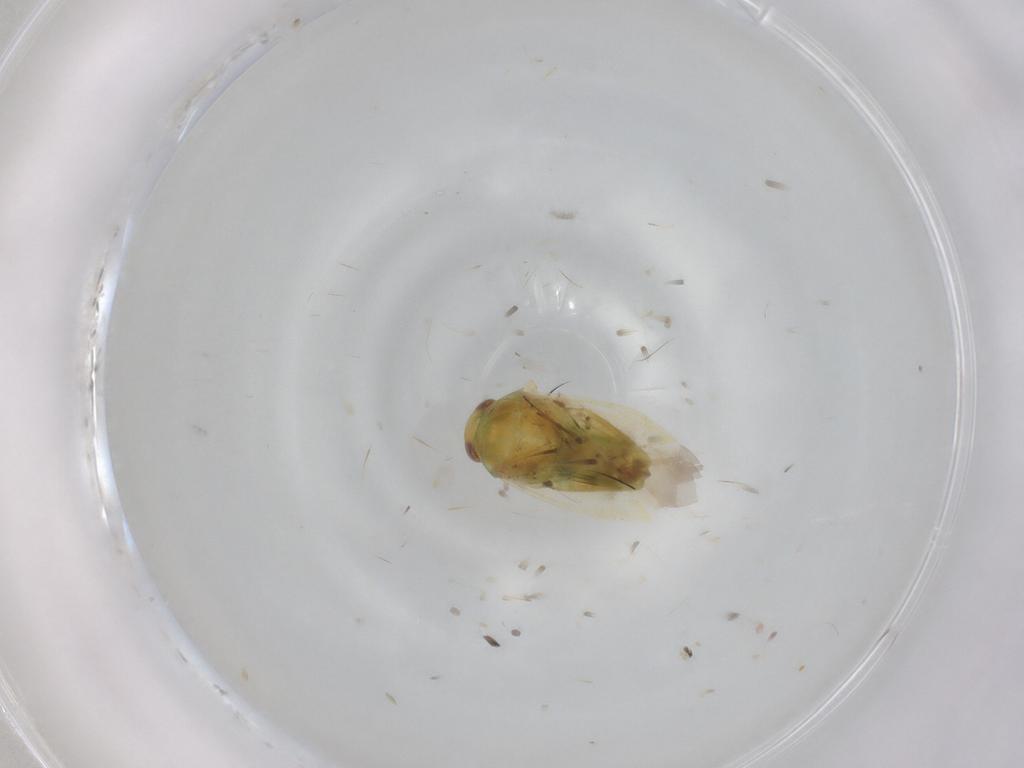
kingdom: Animalia
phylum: Arthropoda
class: Insecta
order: Hemiptera
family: Miridae
